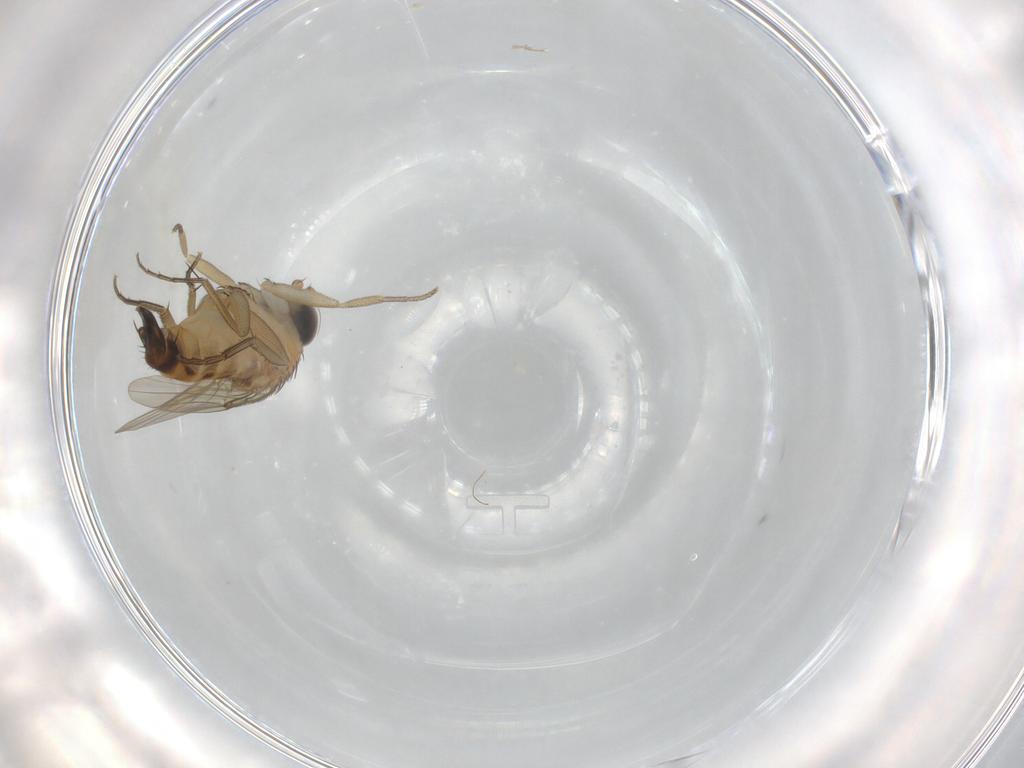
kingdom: Animalia
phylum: Arthropoda
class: Insecta
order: Diptera
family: Phoridae
